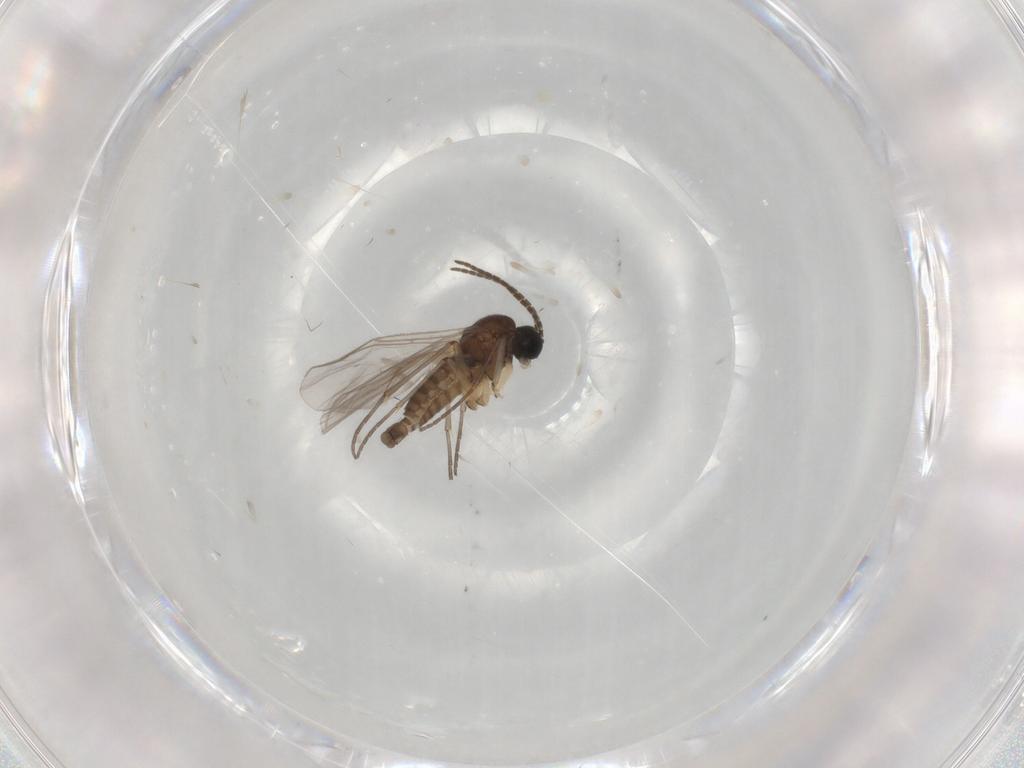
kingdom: Animalia
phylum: Arthropoda
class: Insecta
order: Diptera
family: Sciaridae
